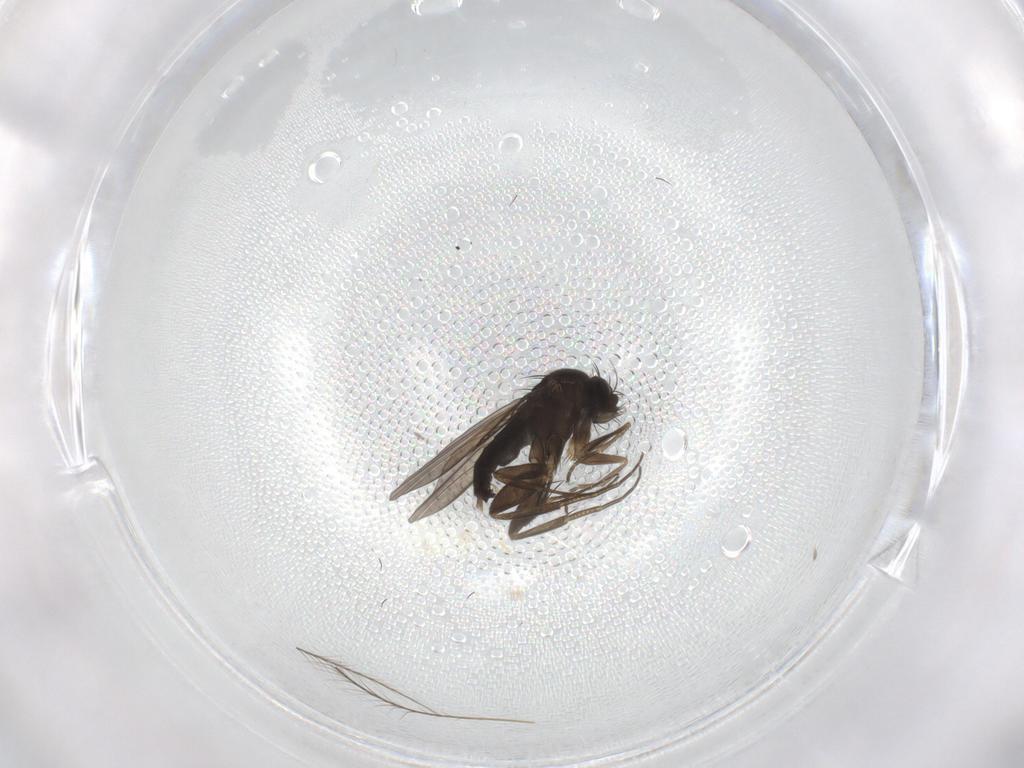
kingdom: Animalia
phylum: Arthropoda
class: Insecta
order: Diptera
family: Phoridae
